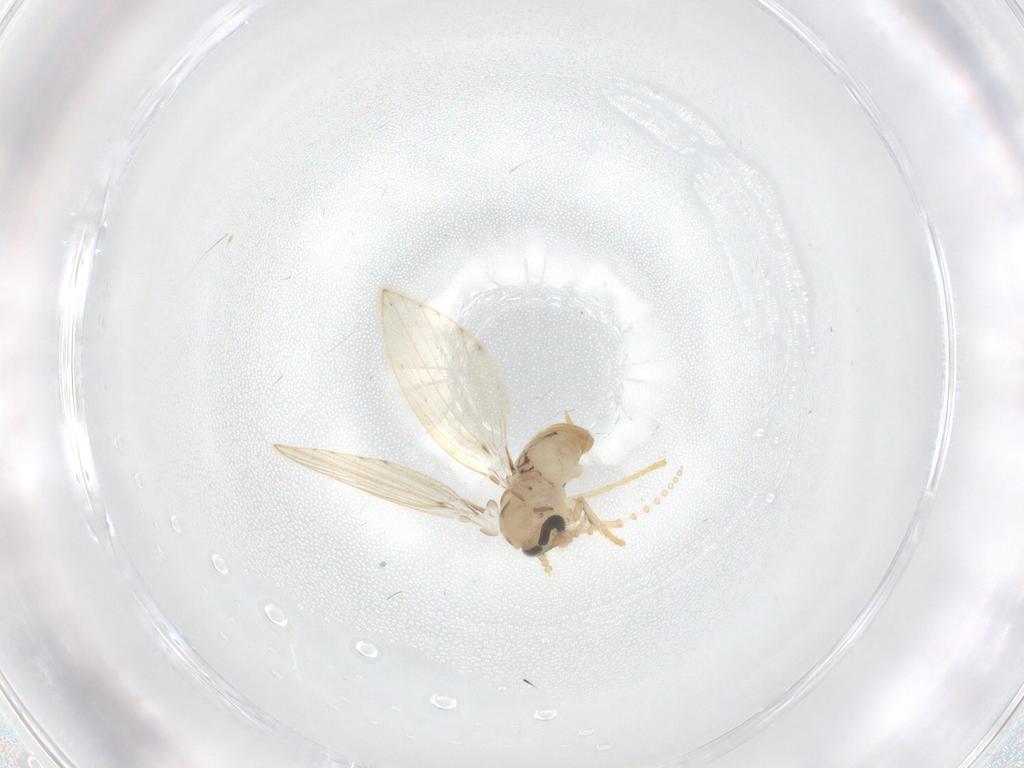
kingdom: Animalia
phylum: Arthropoda
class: Insecta
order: Diptera
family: Psychodidae
